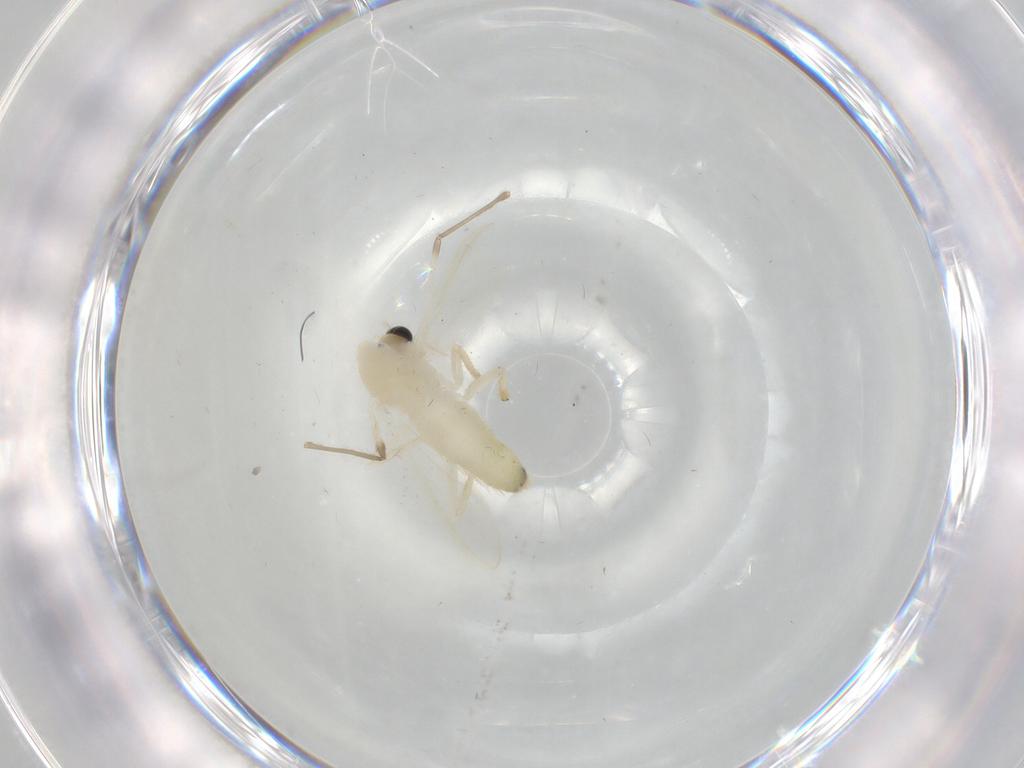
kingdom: Animalia
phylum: Arthropoda
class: Insecta
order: Diptera
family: Chironomidae
